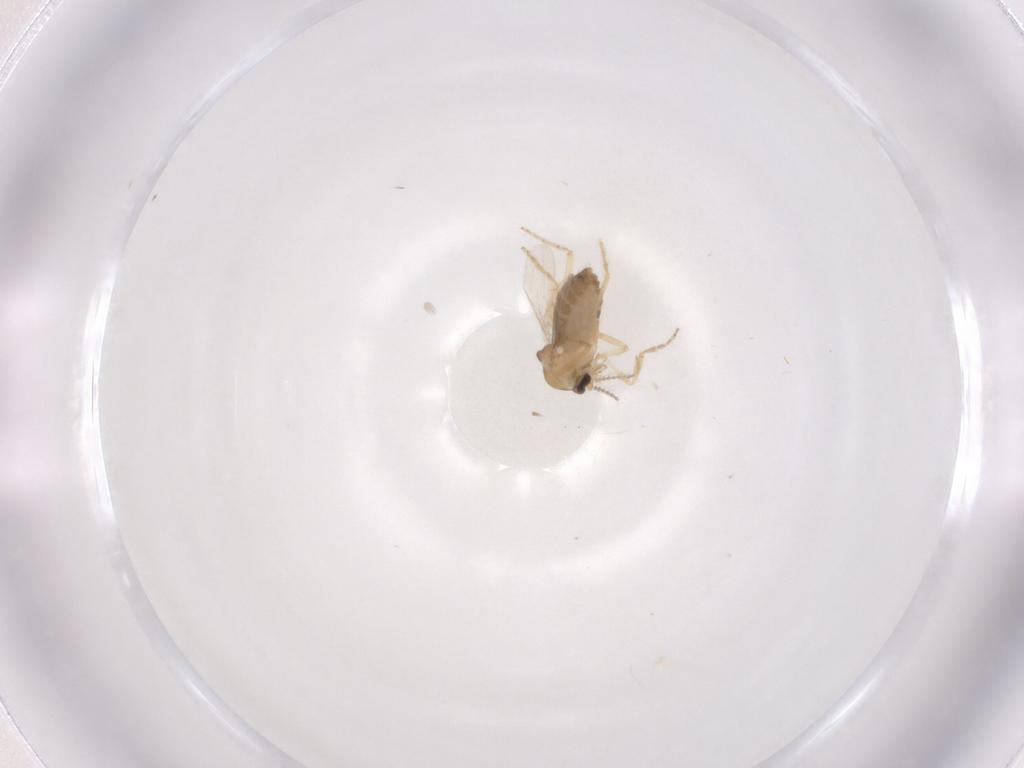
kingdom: Animalia
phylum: Arthropoda
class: Insecta
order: Diptera
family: Ceratopogonidae
